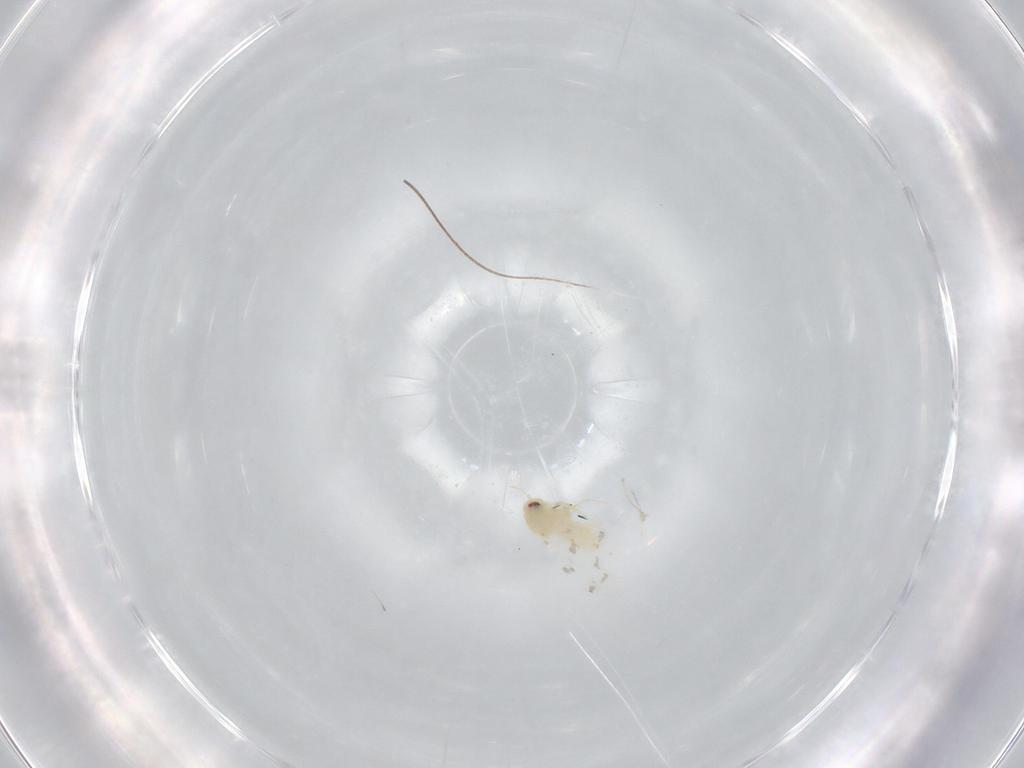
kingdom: Animalia
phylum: Arthropoda
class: Insecta
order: Hemiptera
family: Aleyrodidae
